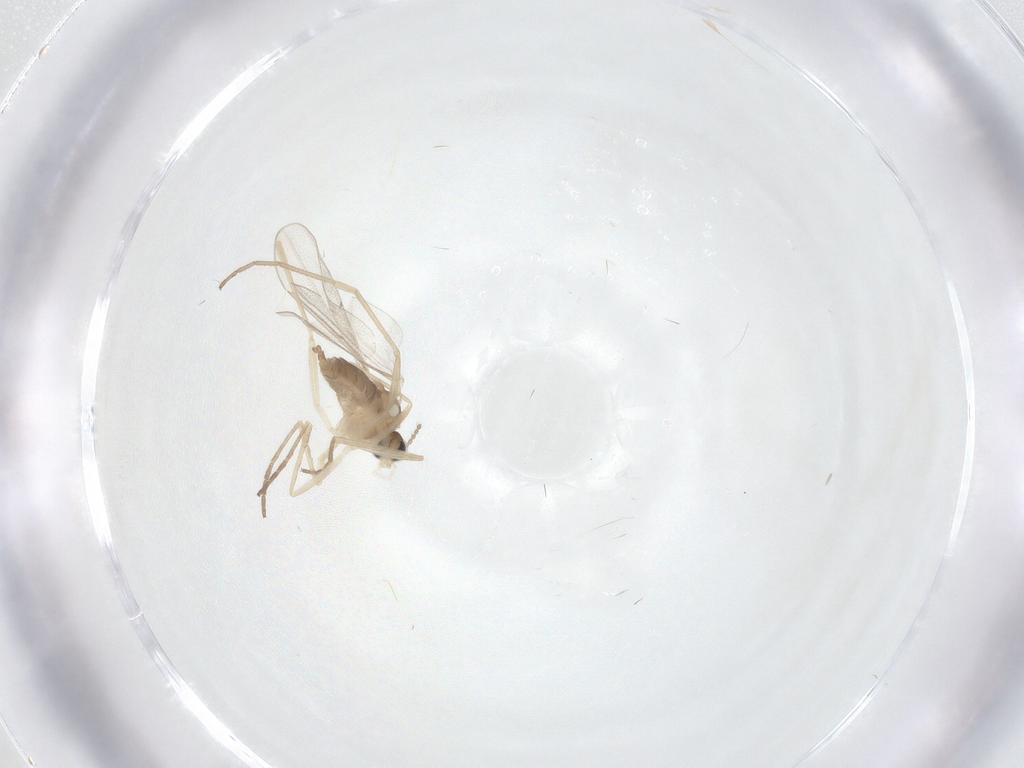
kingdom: Animalia
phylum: Arthropoda
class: Insecta
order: Diptera
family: Cecidomyiidae
